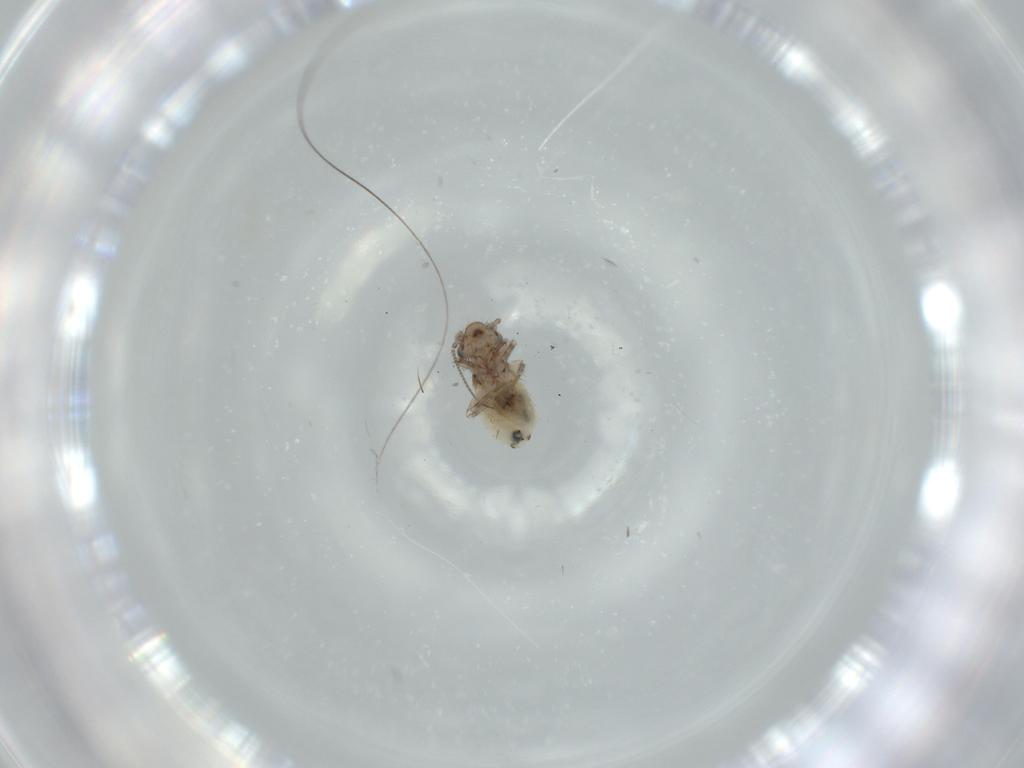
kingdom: Animalia
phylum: Arthropoda
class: Insecta
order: Psocodea
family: Lepidopsocidae
